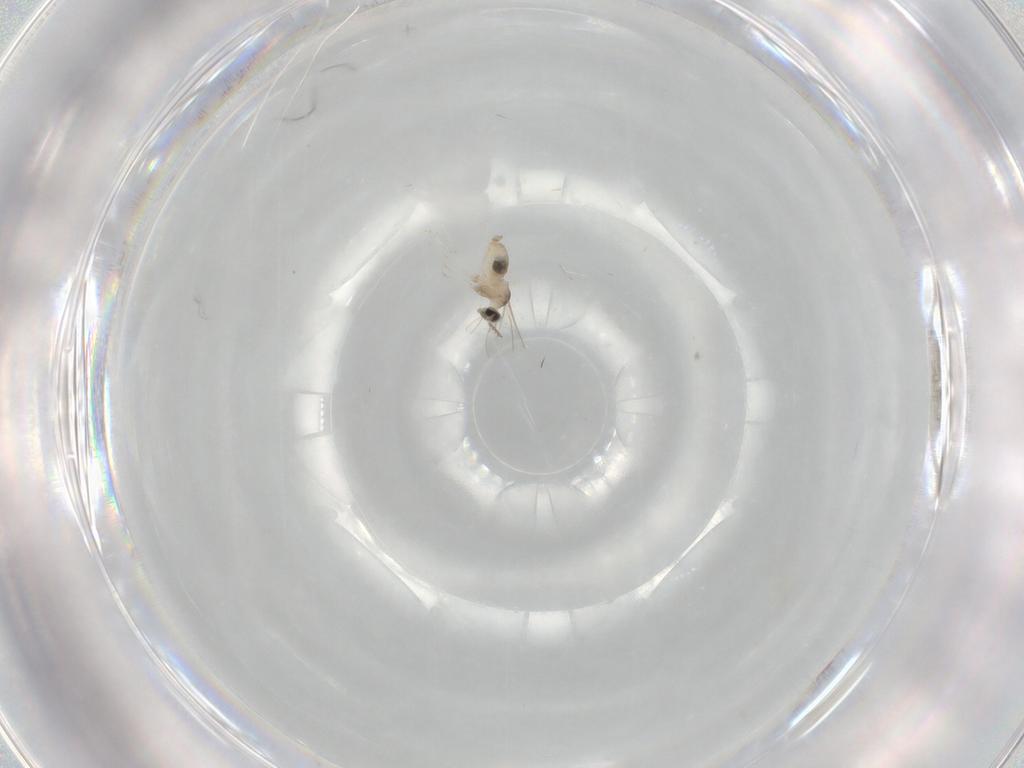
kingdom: Animalia
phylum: Arthropoda
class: Insecta
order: Diptera
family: Cecidomyiidae
